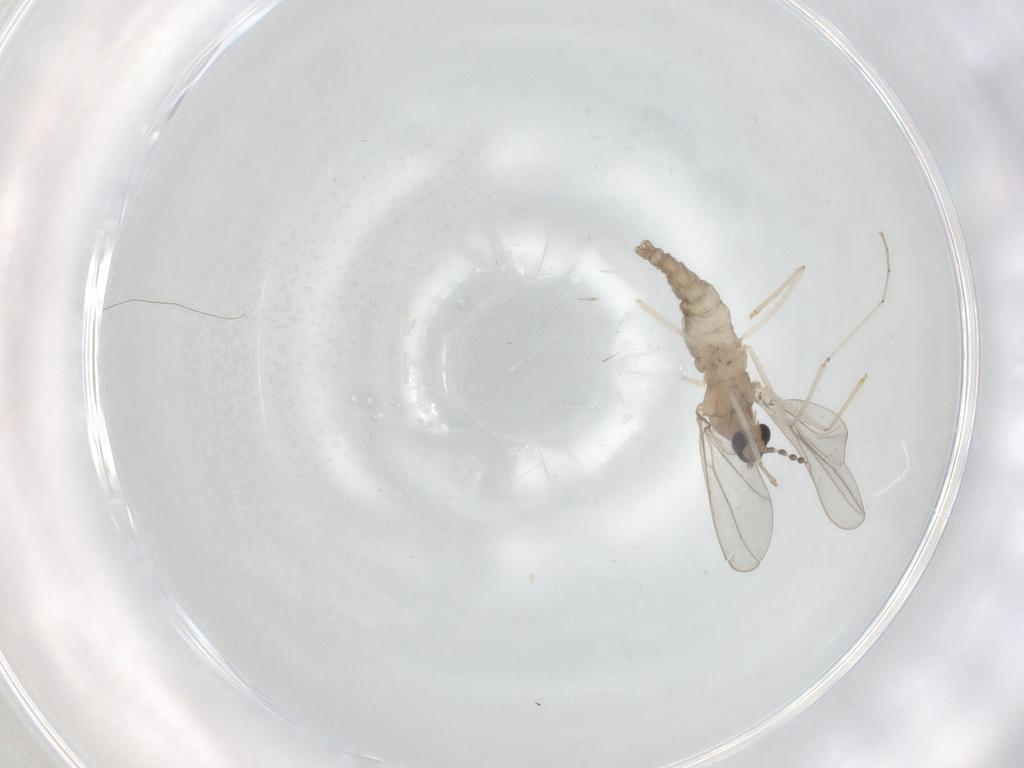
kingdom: Animalia
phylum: Arthropoda
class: Insecta
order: Diptera
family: Cecidomyiidae
